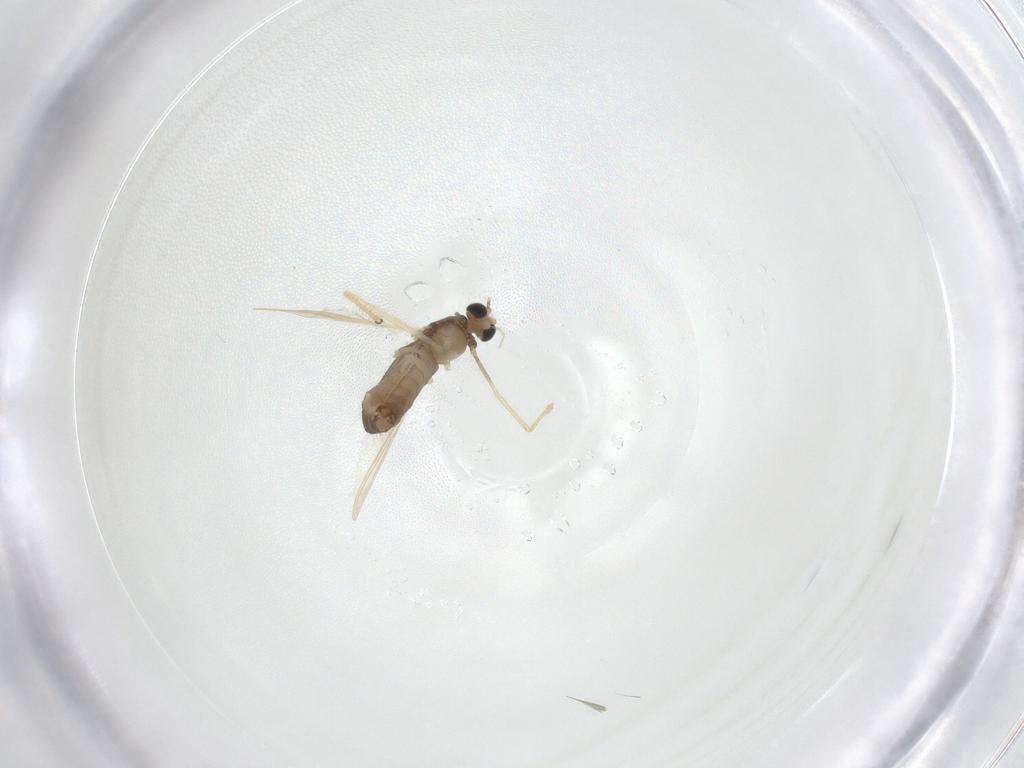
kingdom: Animalia
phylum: Arthropoda
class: Insecta
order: Diptera
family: Chironomidae
